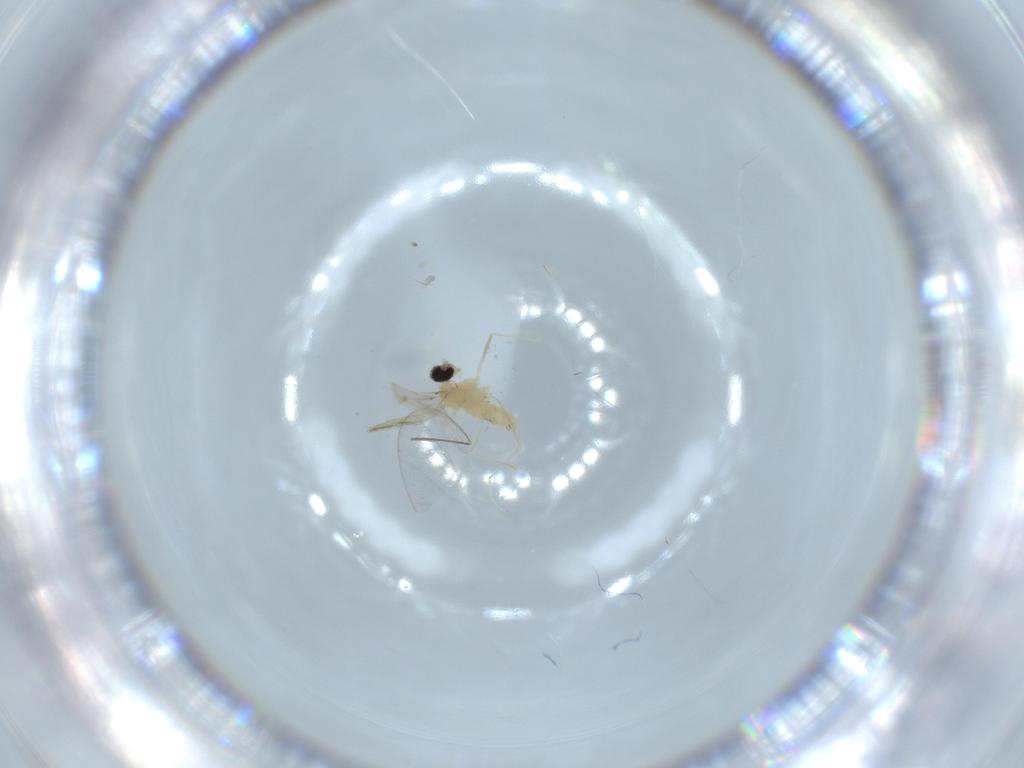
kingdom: Animalia
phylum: Arthropoda
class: Insecta
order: Diptera
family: Cecidomyiidae
